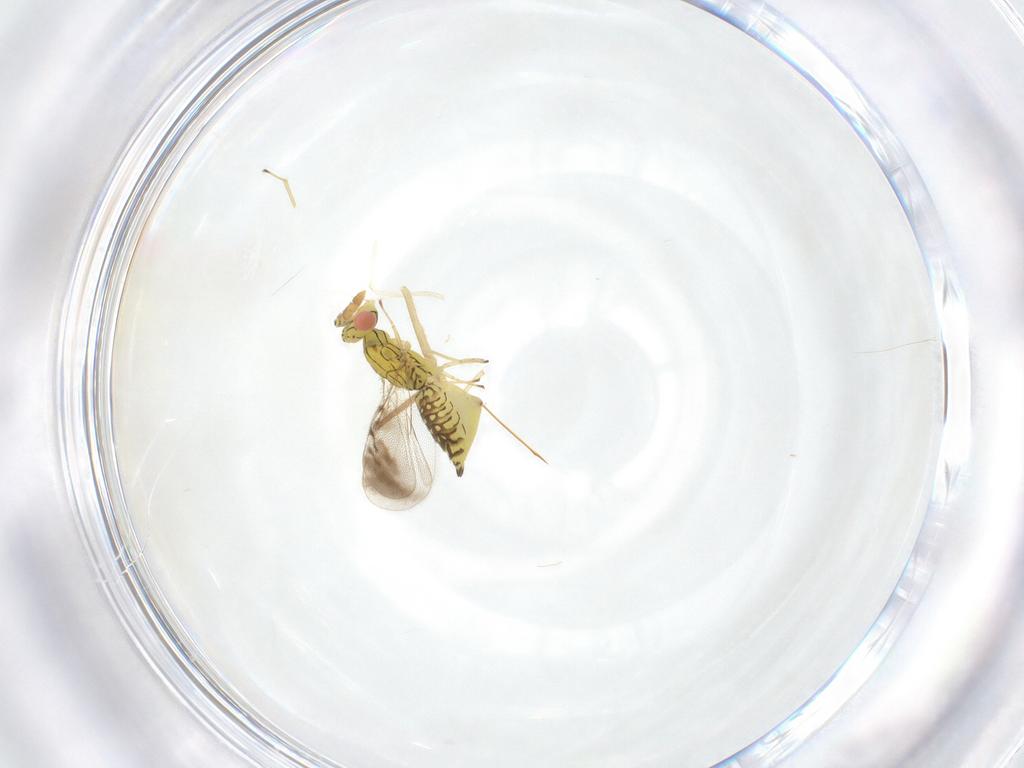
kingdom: Animalia
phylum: Arthropoda
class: Insecta
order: Hymenoptera
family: Eulophidae
